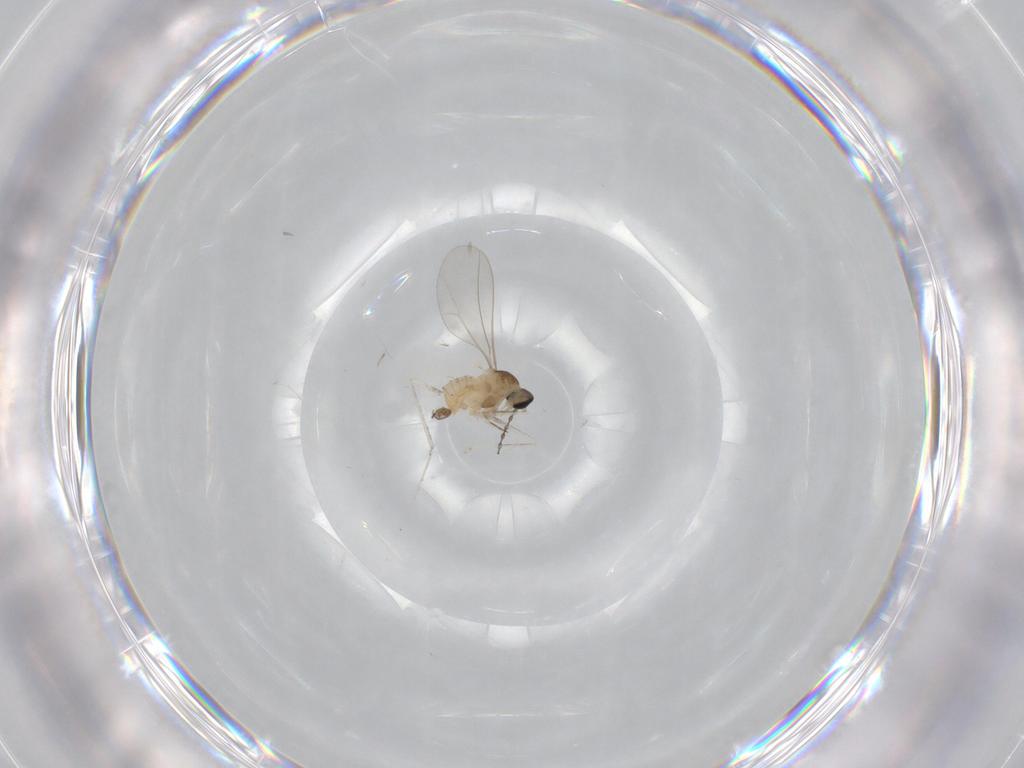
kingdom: Animalia
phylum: Arthropoda
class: Insecta
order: Diptera
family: Cecidomyiidae
